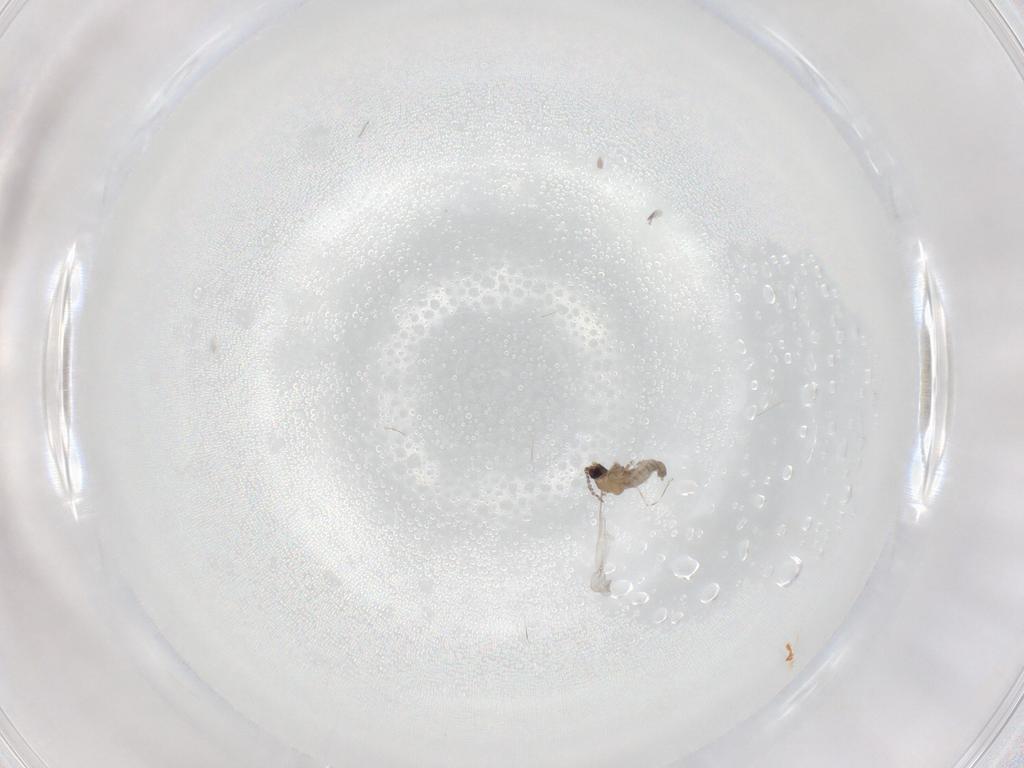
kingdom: Animalia
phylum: Arthropoda
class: Insecta
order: Diptera
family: Cecidomyiidae
